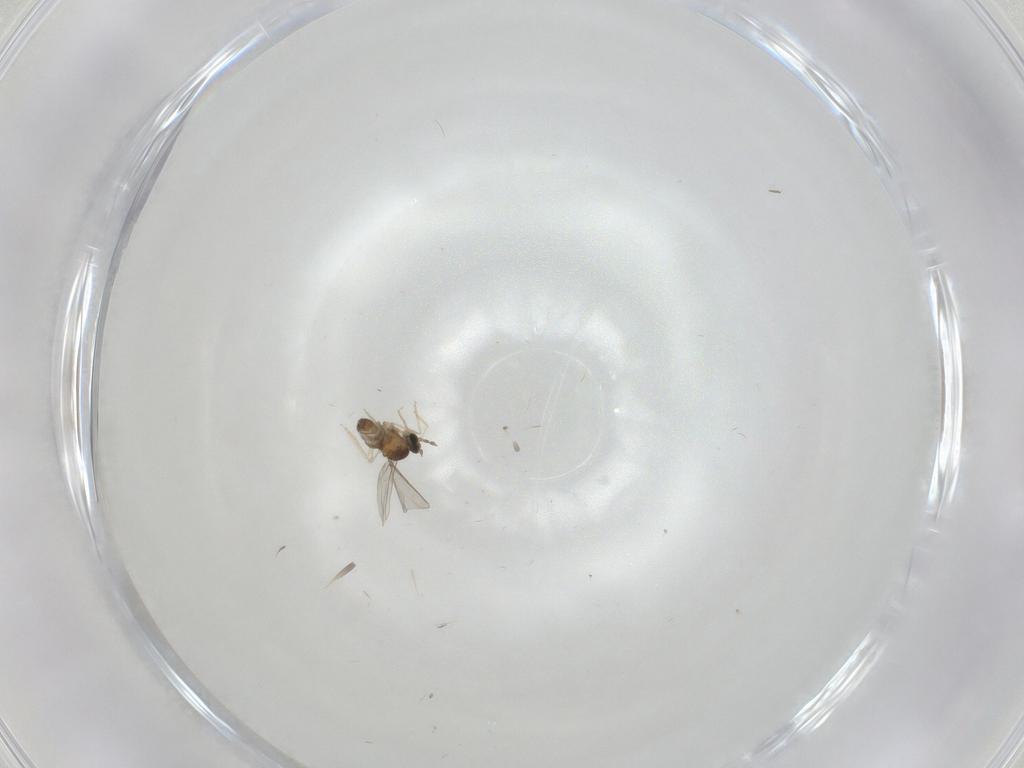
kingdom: Animalia
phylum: Arthropoda
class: Insecta
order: Diptera
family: Cecidomyiidae
